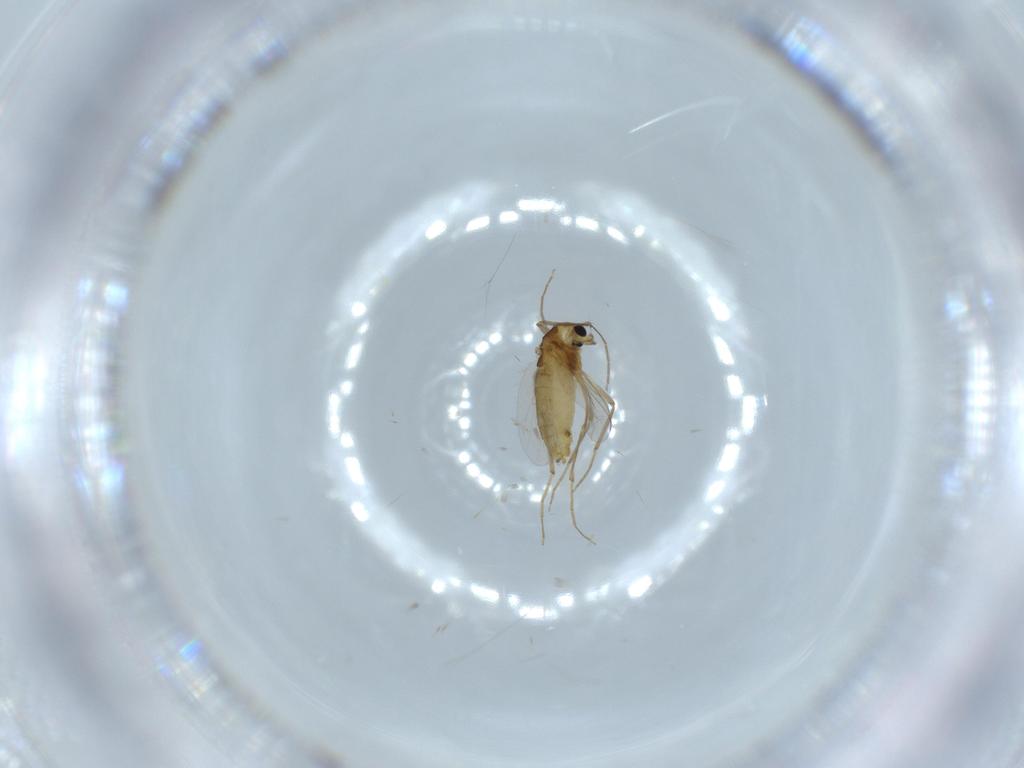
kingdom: Animalia
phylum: Arthropoda
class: Insecta
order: Diptera
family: Chironomidae
